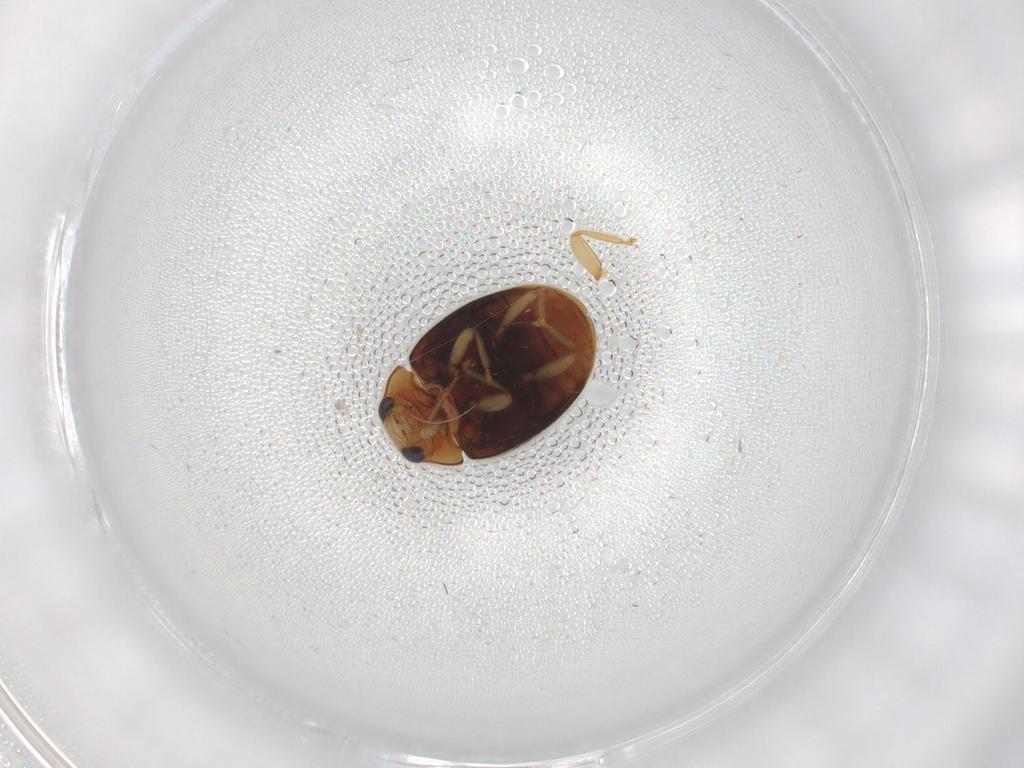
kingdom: Animalia
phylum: Arthropoda
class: Insecta
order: Coleoptera
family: Coccinellidae
